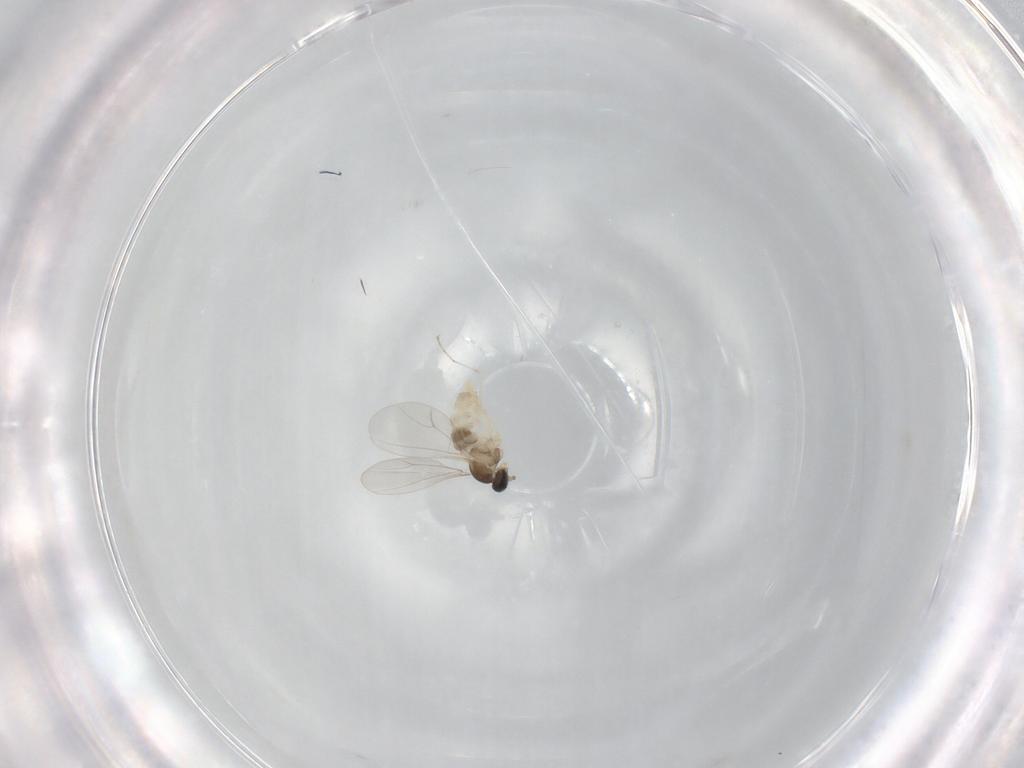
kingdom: Animalia
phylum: Arthropoda
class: Insecta
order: Diptera
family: Cecidomyiidae
